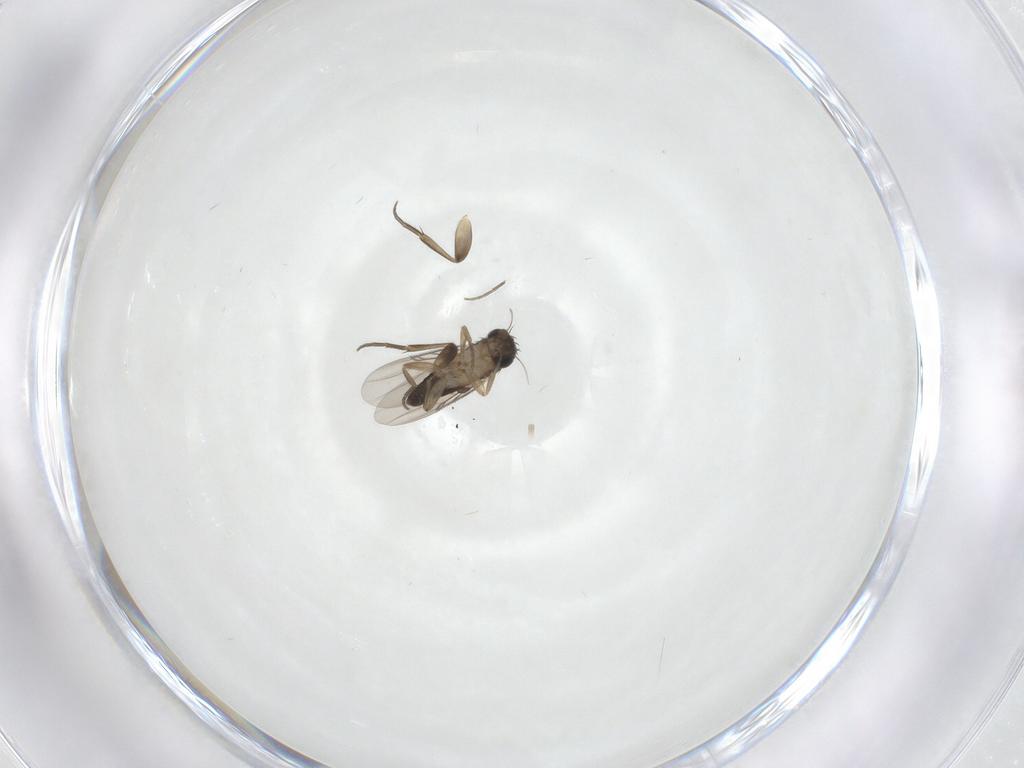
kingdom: Animalia
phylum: Arthropoda
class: Insecta
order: Diptera
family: Phoridae
